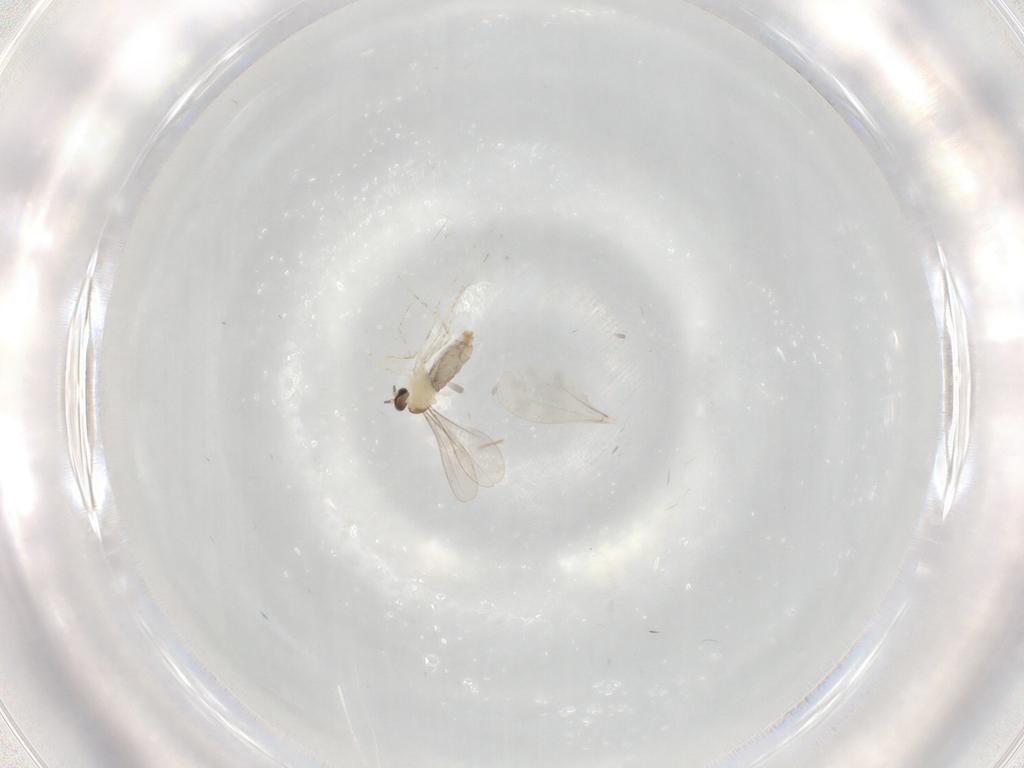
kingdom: Animalia
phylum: Arthropoda
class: Insecta
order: Diptera
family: Cecidomyiidae
